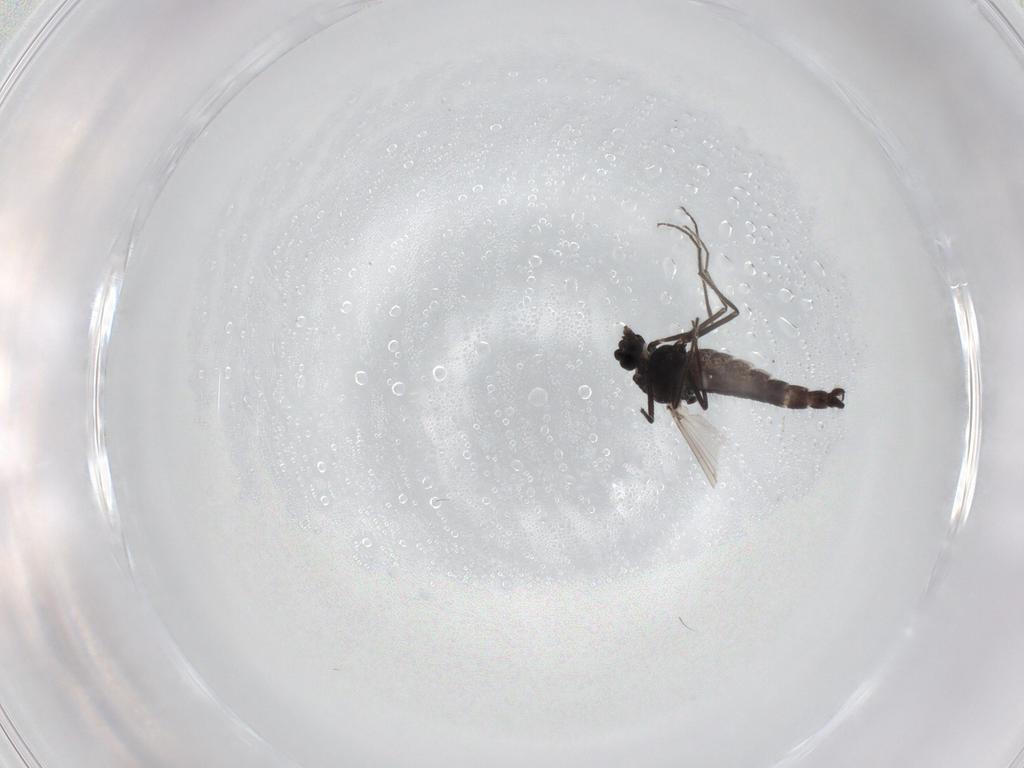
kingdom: Animalia
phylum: Arthropoda
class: Insecta
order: Diptera
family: Chironomidae
